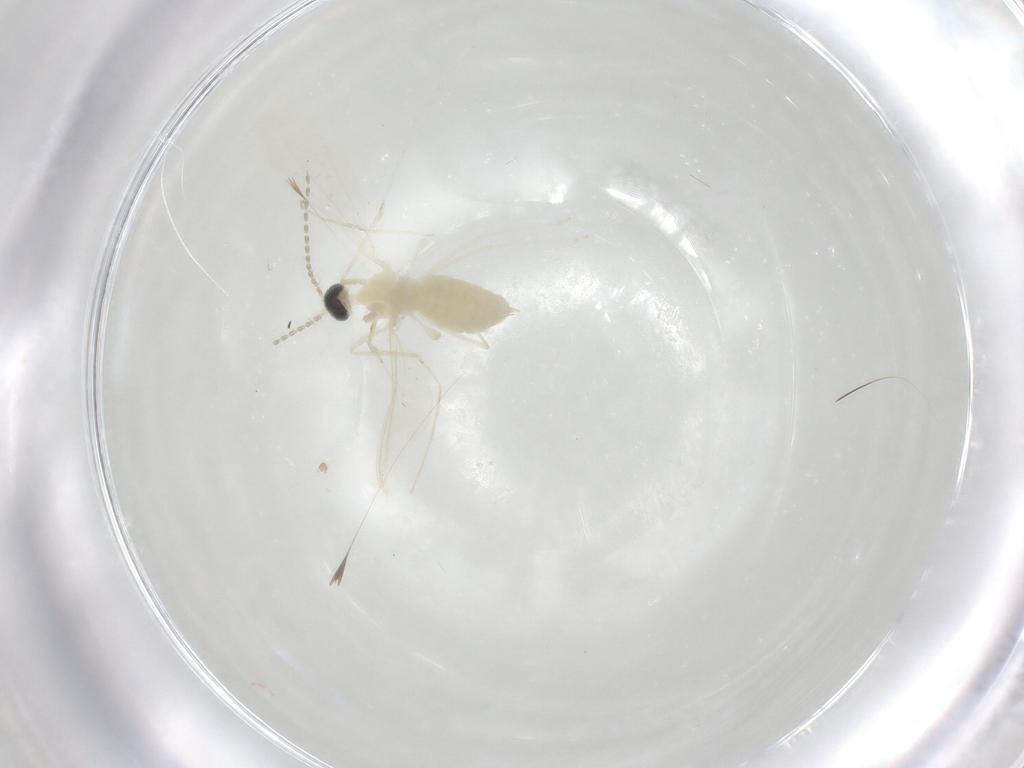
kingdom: Animalia
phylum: Arthropoda
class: Insecta
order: Diptera
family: Cecidomyiidae
